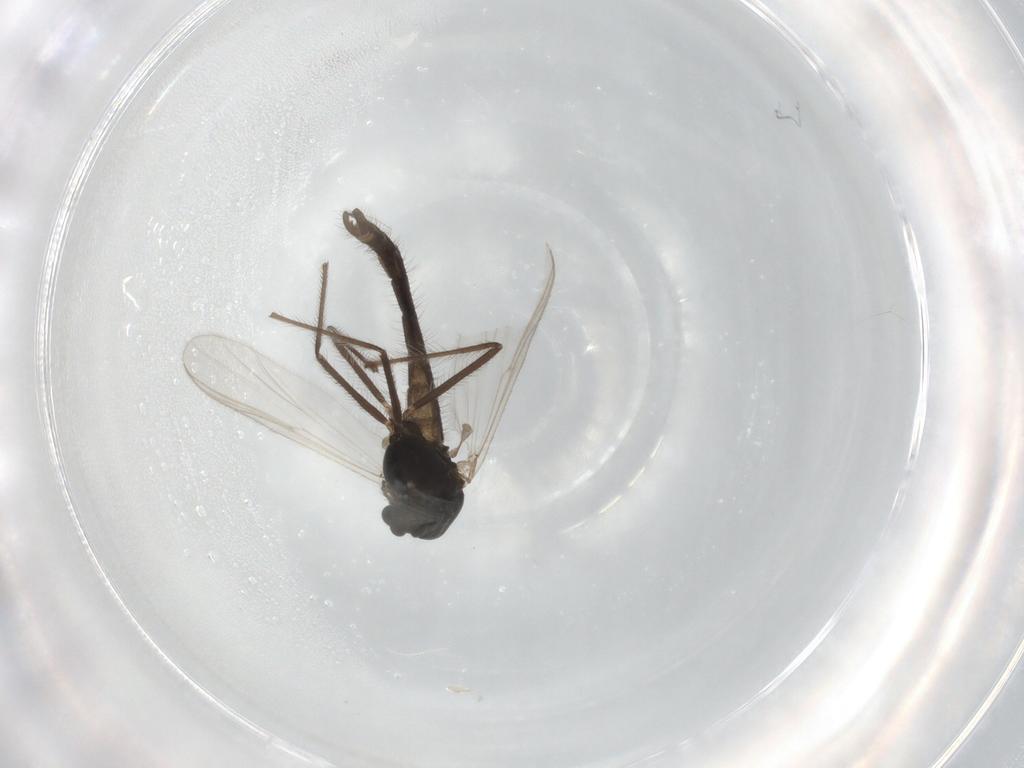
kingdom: Animalia
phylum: Arthropoda
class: Insecta
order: Diptera
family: Chironomidae
